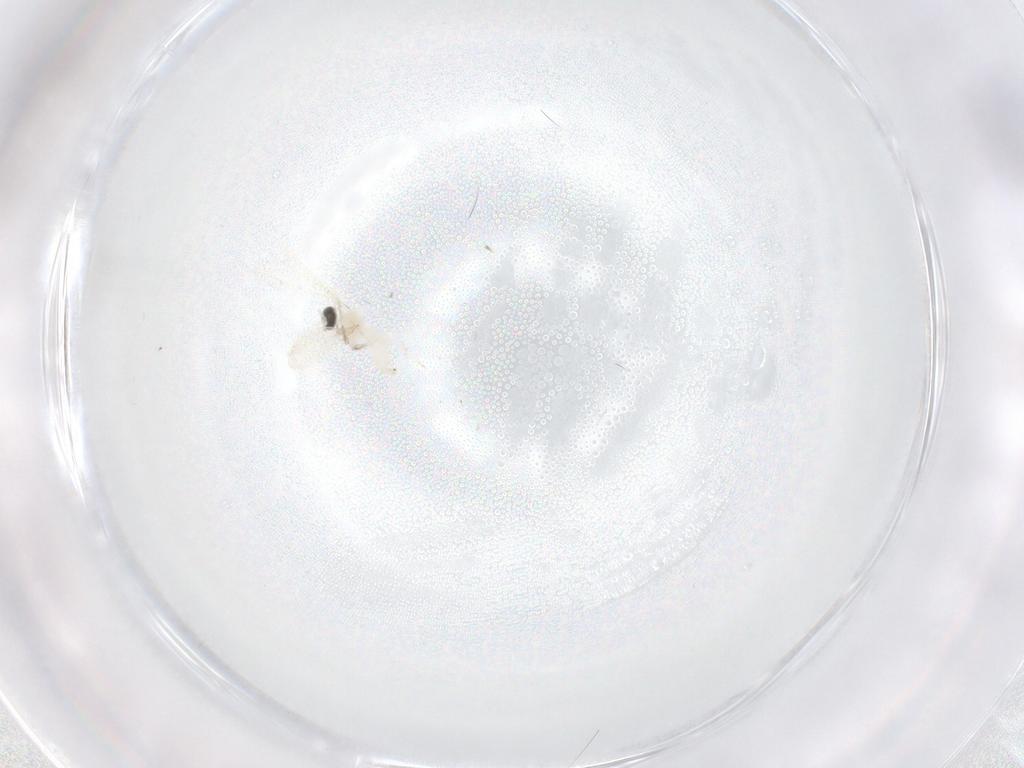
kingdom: Animalia
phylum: Arthropoda
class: Insecta
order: Diptera
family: Cecidomyiidae
